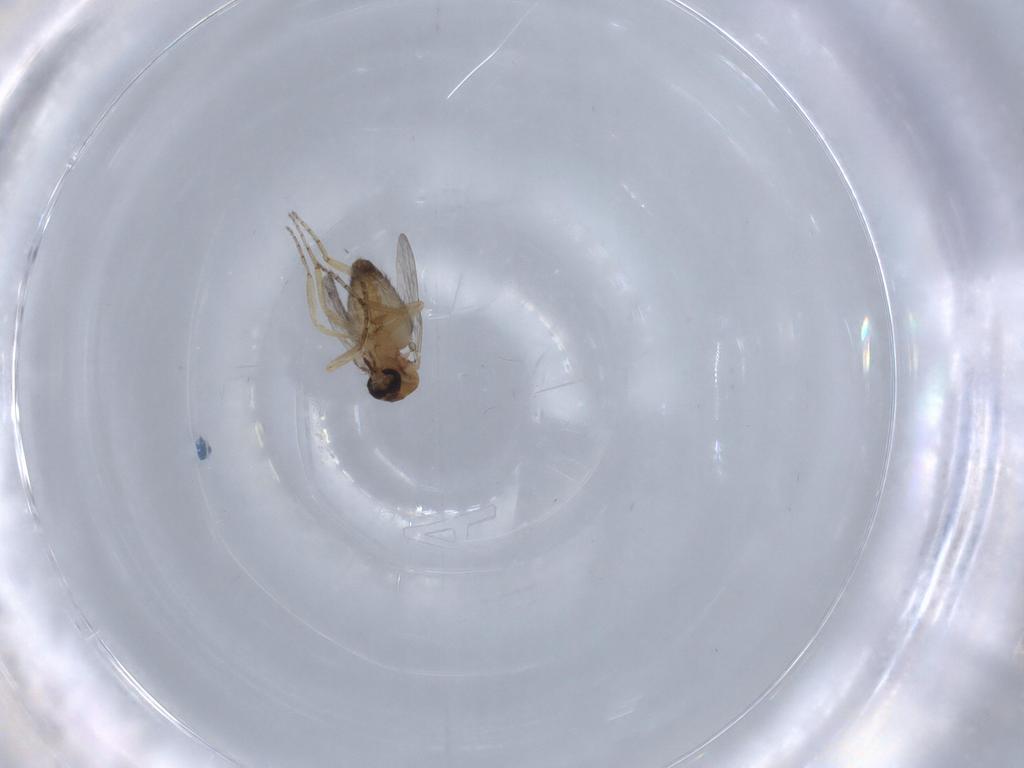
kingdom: Animalia
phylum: Arthropoda
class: Insecta
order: Diptera
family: Ceratopogonidae
